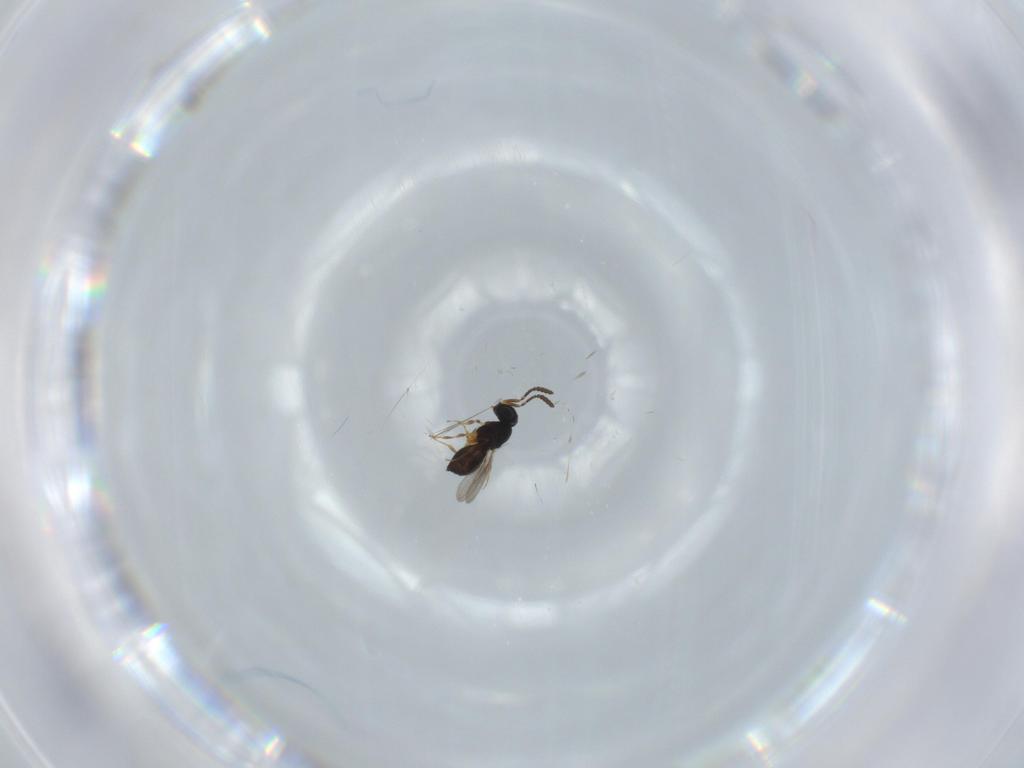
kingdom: Animalia
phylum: Arthropoda
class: Insecta
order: Hymenoptera
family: Scelionidae
